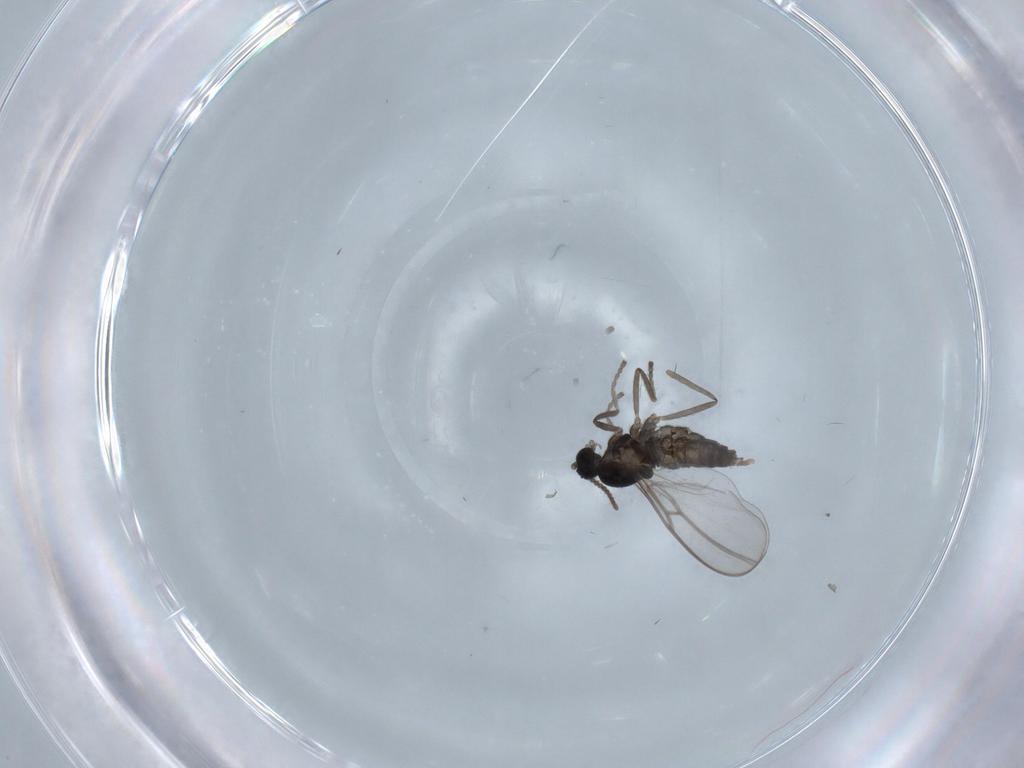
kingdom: Animalia
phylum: Arthropoda
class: Insecta
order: Diptera
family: Cecidomyiidae
